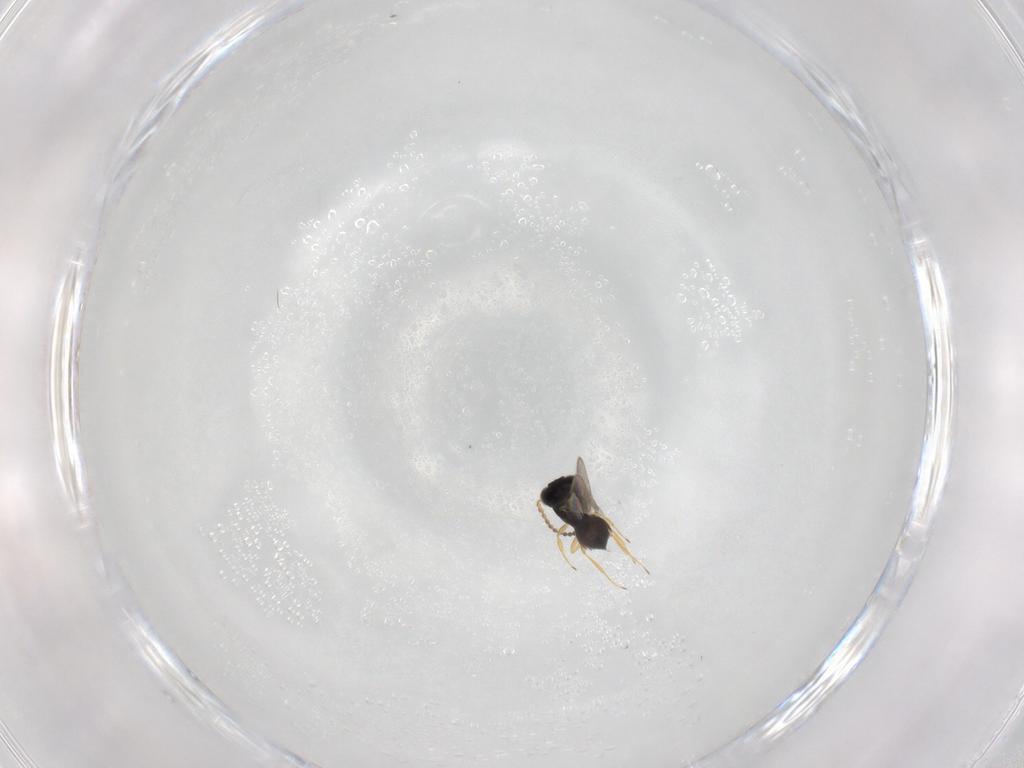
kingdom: Animalia
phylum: Arthropoda
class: Insecta
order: Hymenoptera
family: Scelionidae
